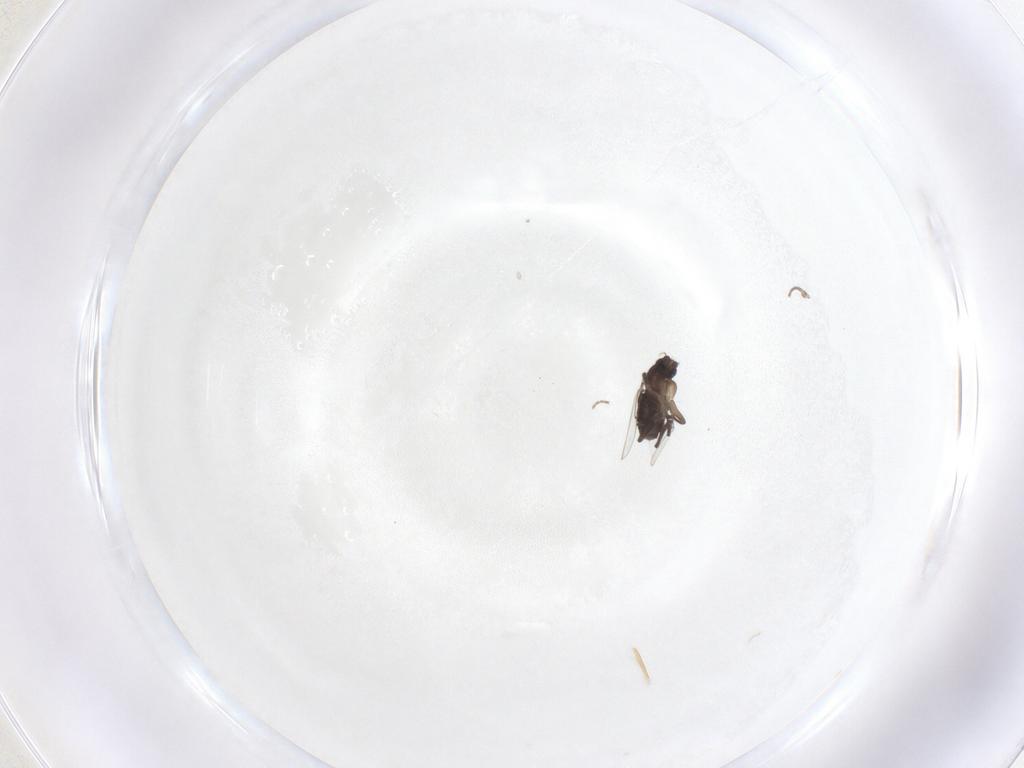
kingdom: Animalia
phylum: Arthropoda
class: Insecta
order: Diptera
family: Phoridae
